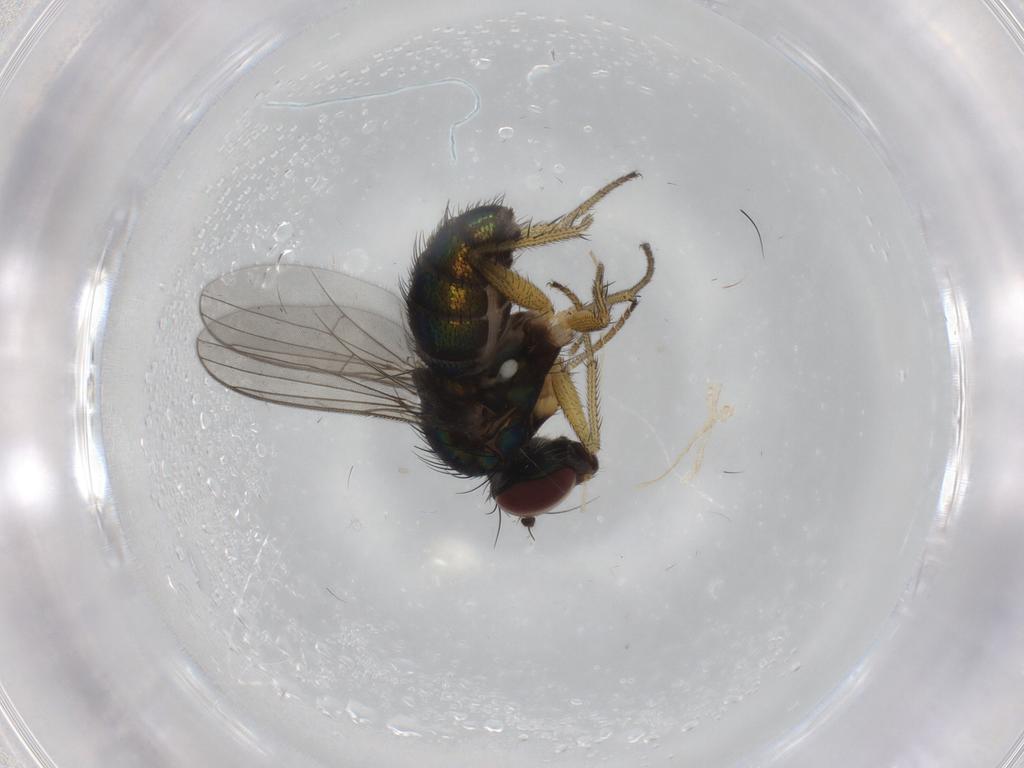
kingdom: Animalia
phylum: Arthropoda
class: Insecta
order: Diptera
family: Dolichopodidae
